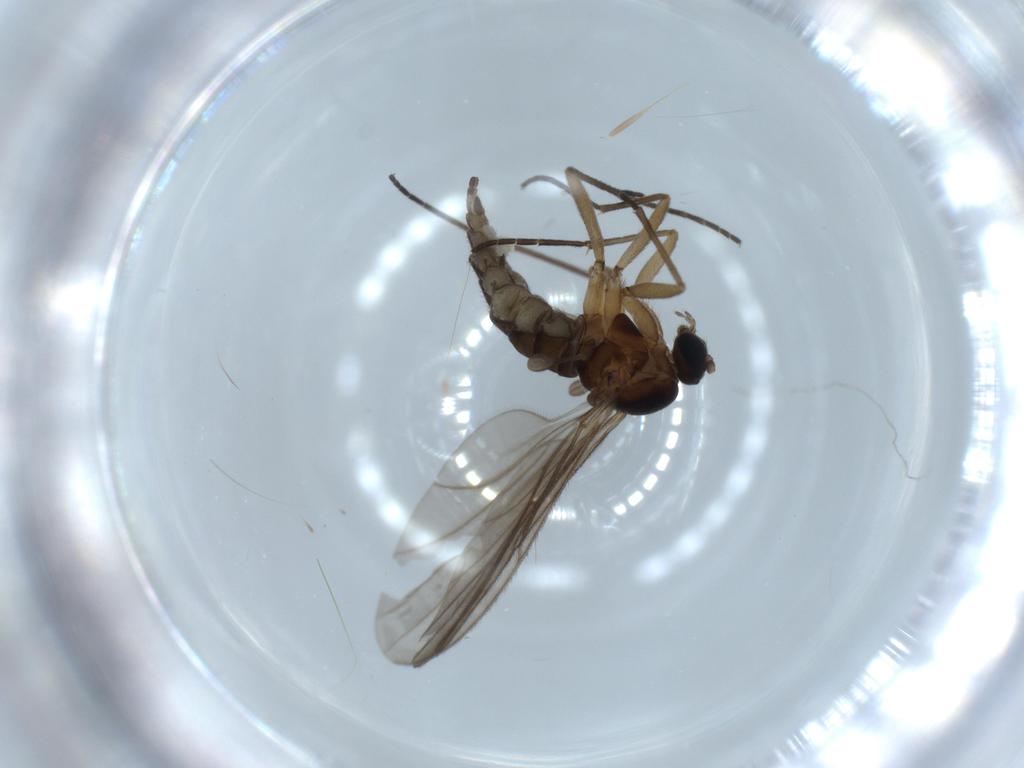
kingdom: Animalia
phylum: Arthropoda
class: Insecta
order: Diptera
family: Sciaridae
